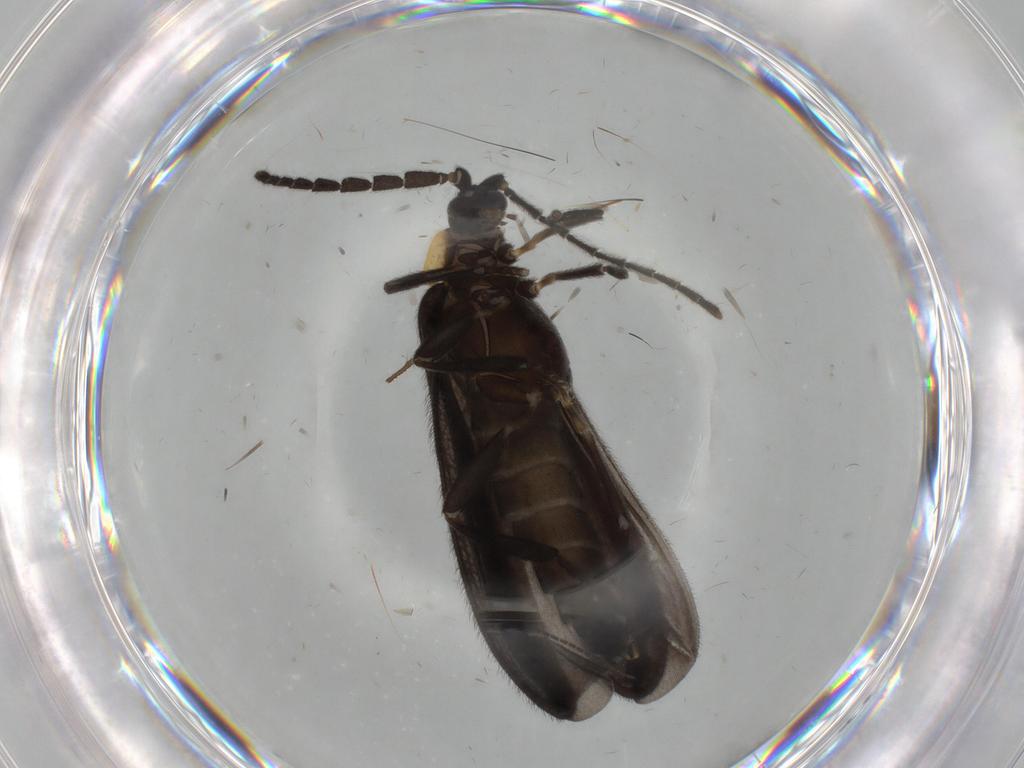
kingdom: Animalia
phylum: Arthropoda
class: Insecta
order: Coleoptera
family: Lycidae
